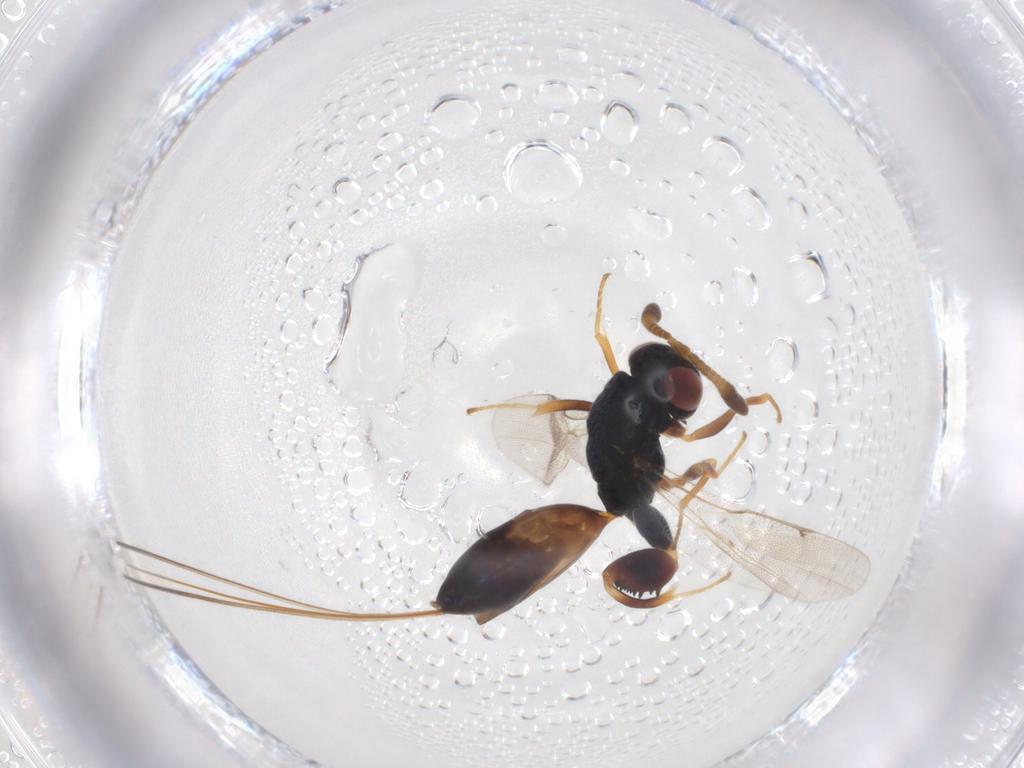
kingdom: Animalia
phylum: Arthropoda
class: Insecta
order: Hymenoptera
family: Torymidae
